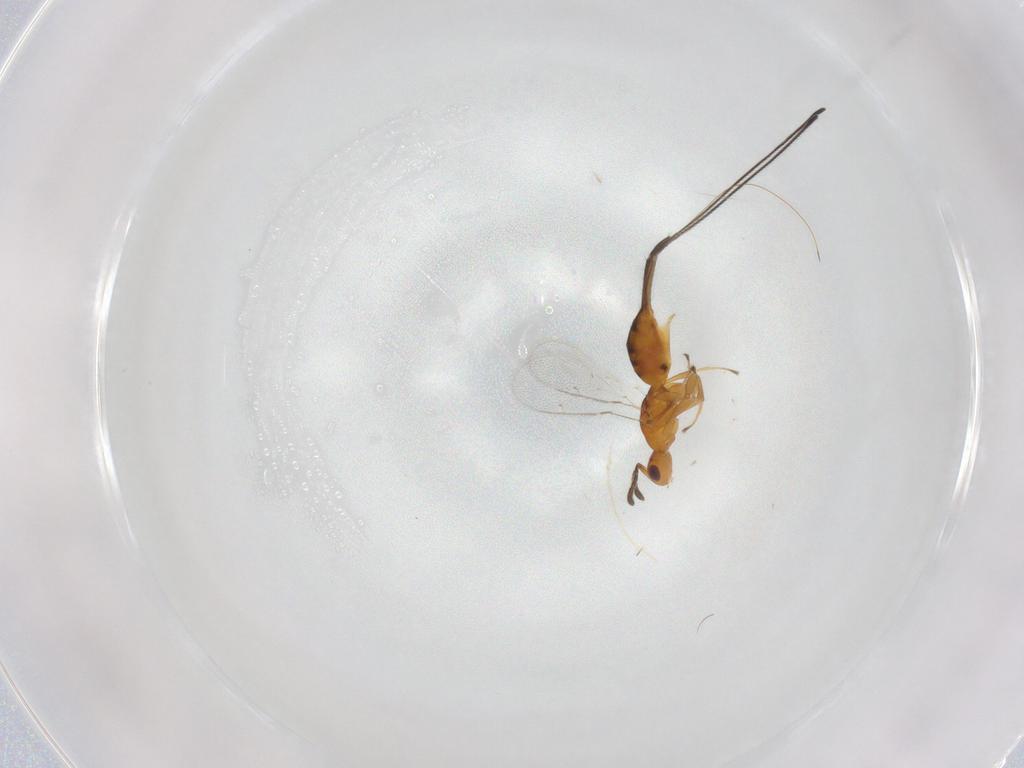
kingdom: Animalia
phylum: Arthropoda
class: Insecta
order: Hymenoptera
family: Pteromalidae
